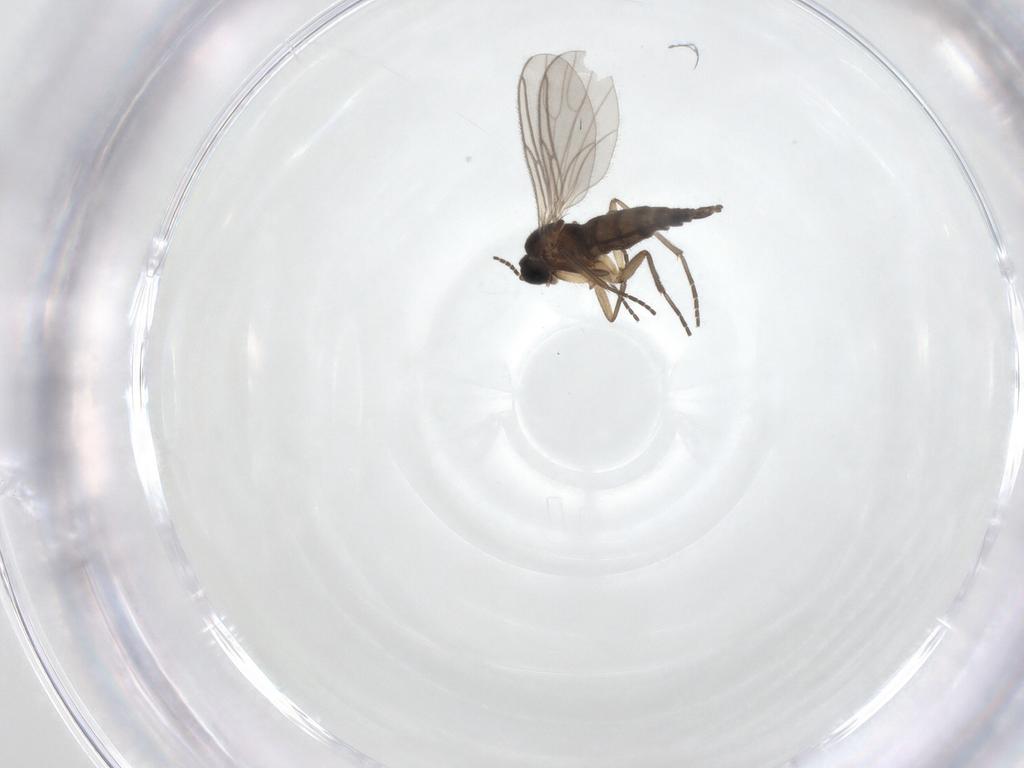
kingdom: Animalia
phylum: Arthropoda
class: Insecta
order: Diptera
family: Sciaridae
